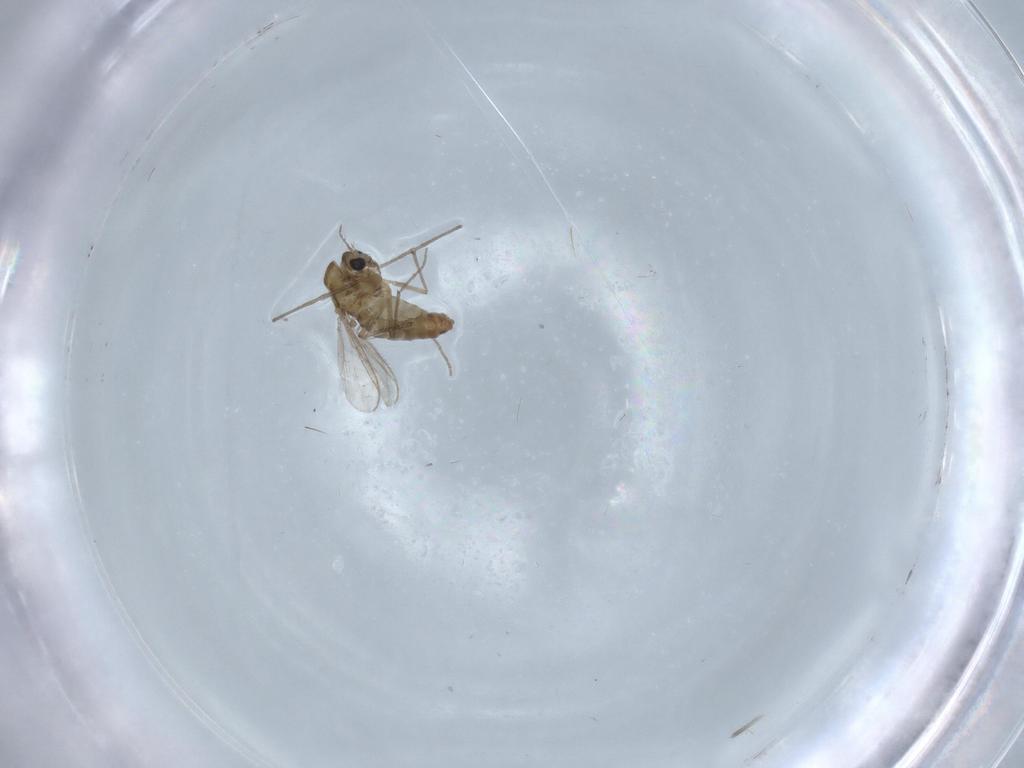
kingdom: Animalia
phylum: Arthropoda
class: Insecta
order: Diptera
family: Chironomidae
